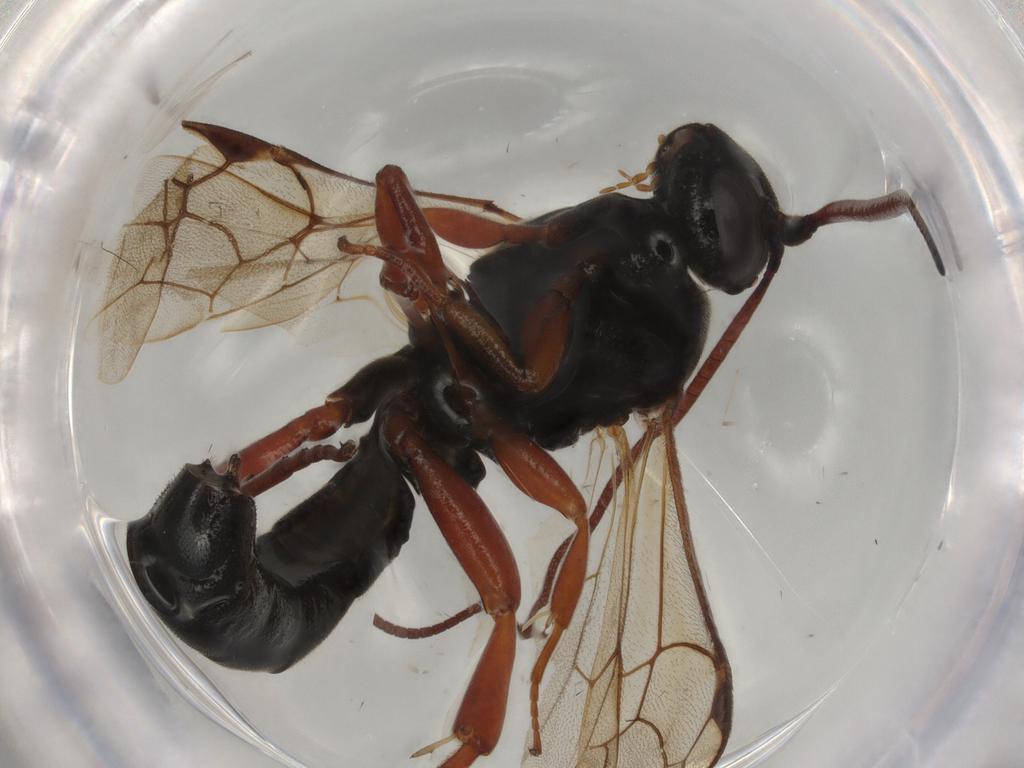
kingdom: Animalia
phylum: Arthropoda
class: Insecta
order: Hymenoptera
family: Ichneumonidae
